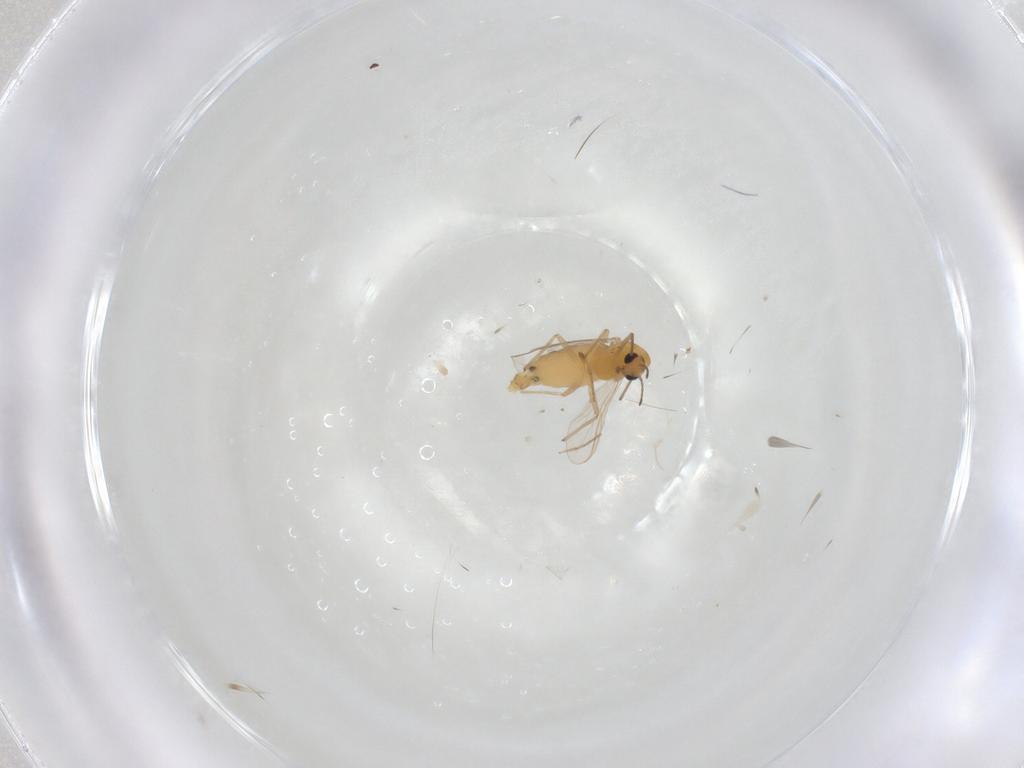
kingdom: Animalia
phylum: Arthropoda
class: Insecta
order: Diptera
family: Chironomidae
